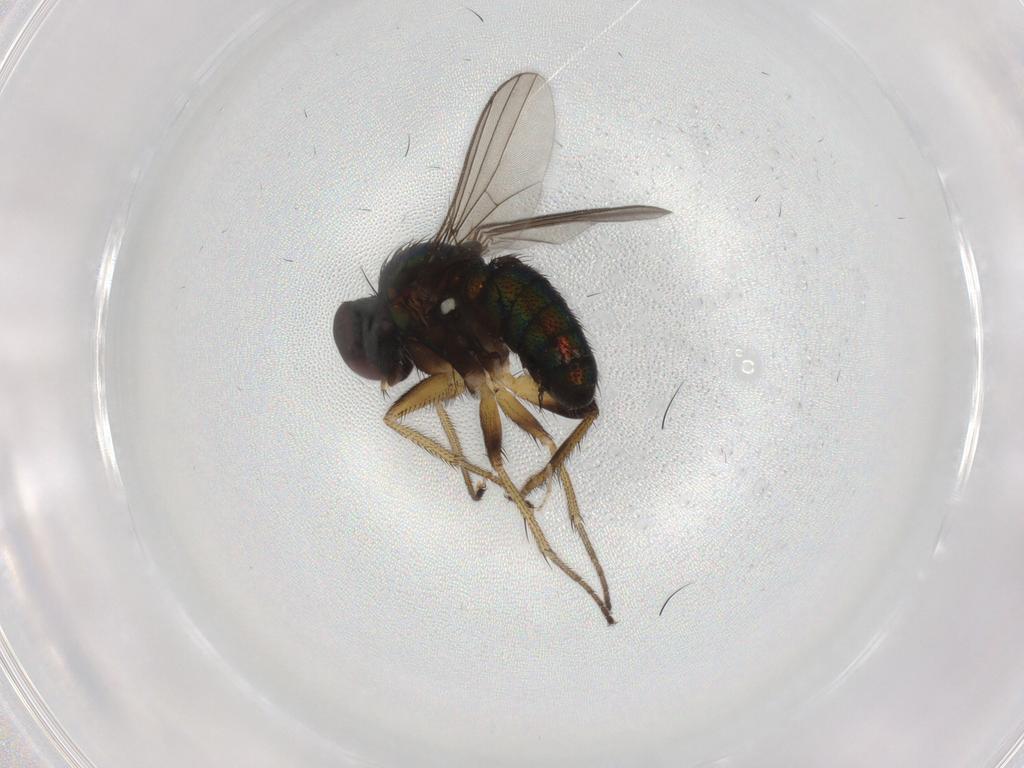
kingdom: Animalia
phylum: Arthropoda
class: Insecta
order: Diptera
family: Dolichopodidae
